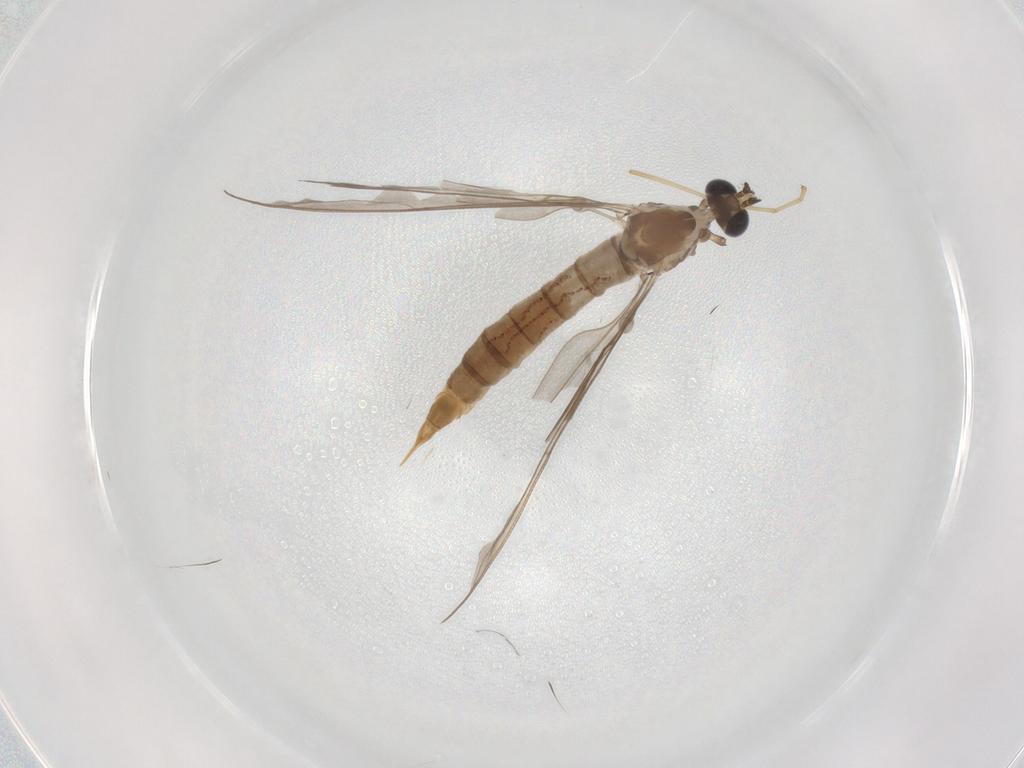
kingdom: Animalia
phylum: Arthropoda
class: Insecta
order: Diptera
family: Limoniidae
